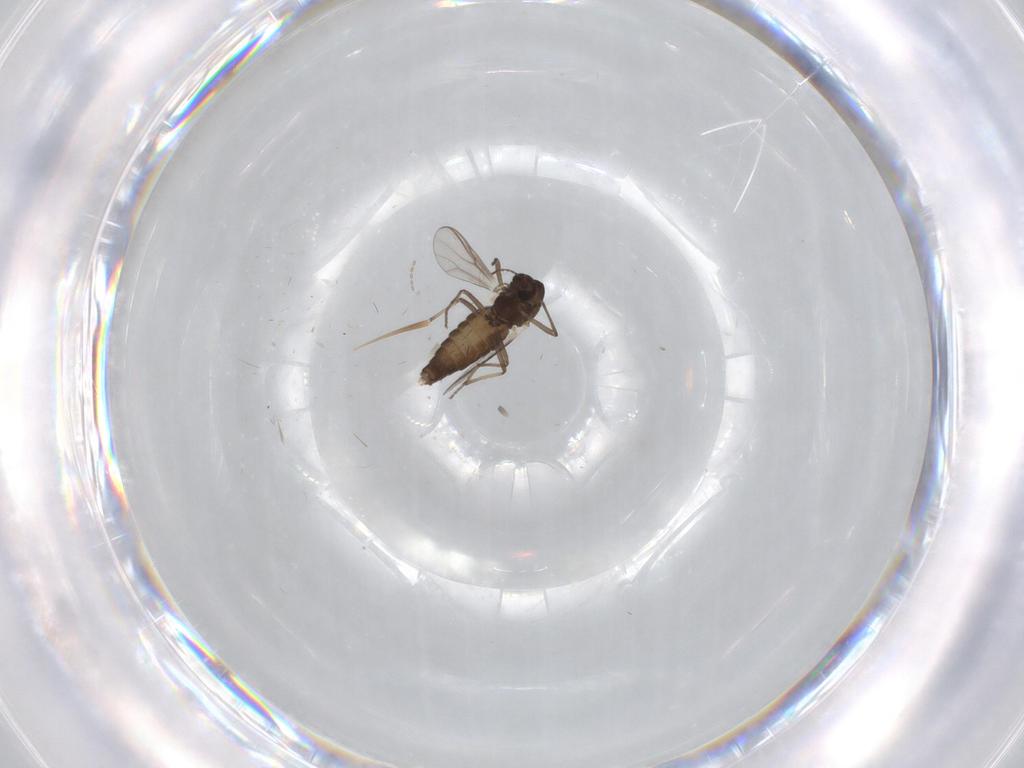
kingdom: Animalia
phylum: Arthropoda
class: Insecta
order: Diptera
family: Chironomidae
